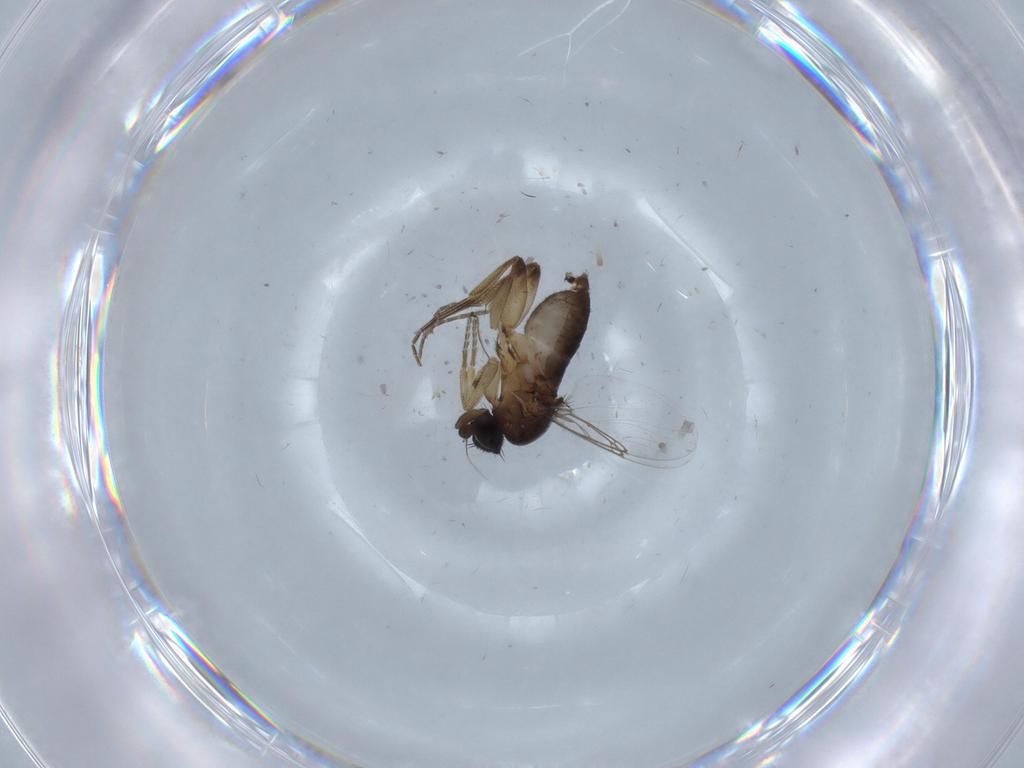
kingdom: Animalia
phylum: Arthropoda
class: Insecta
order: Diptera
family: Phoridae
